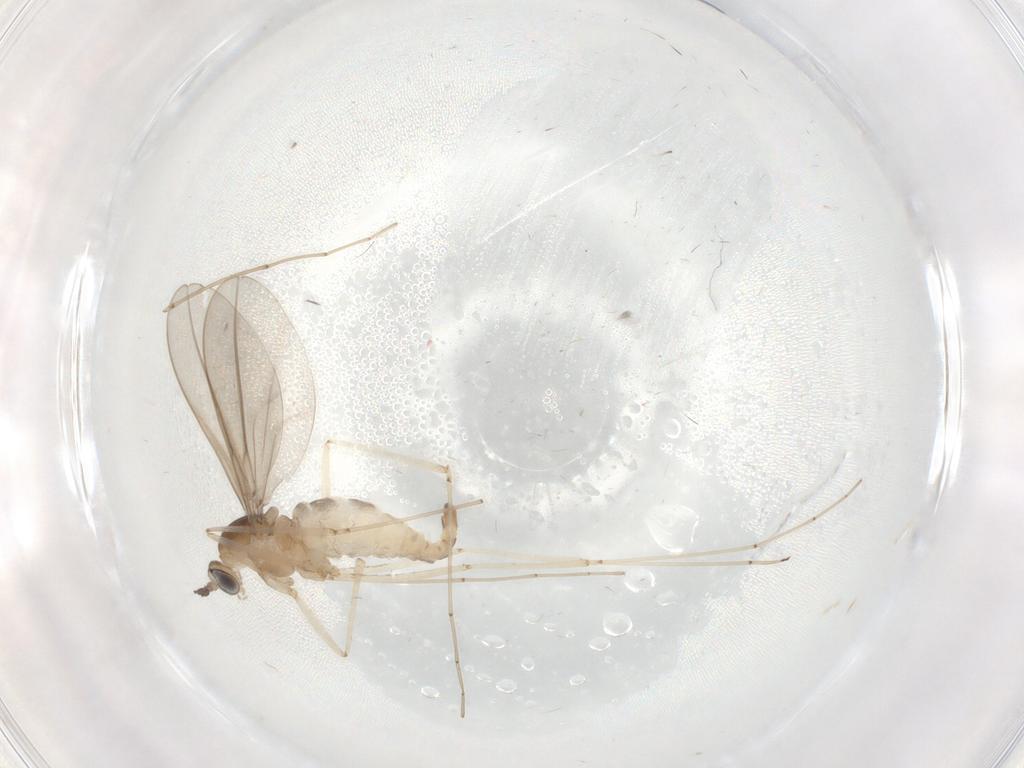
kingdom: Animalia
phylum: Arthropoda
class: Insecta
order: Diptera
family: Cecidomyiidae
